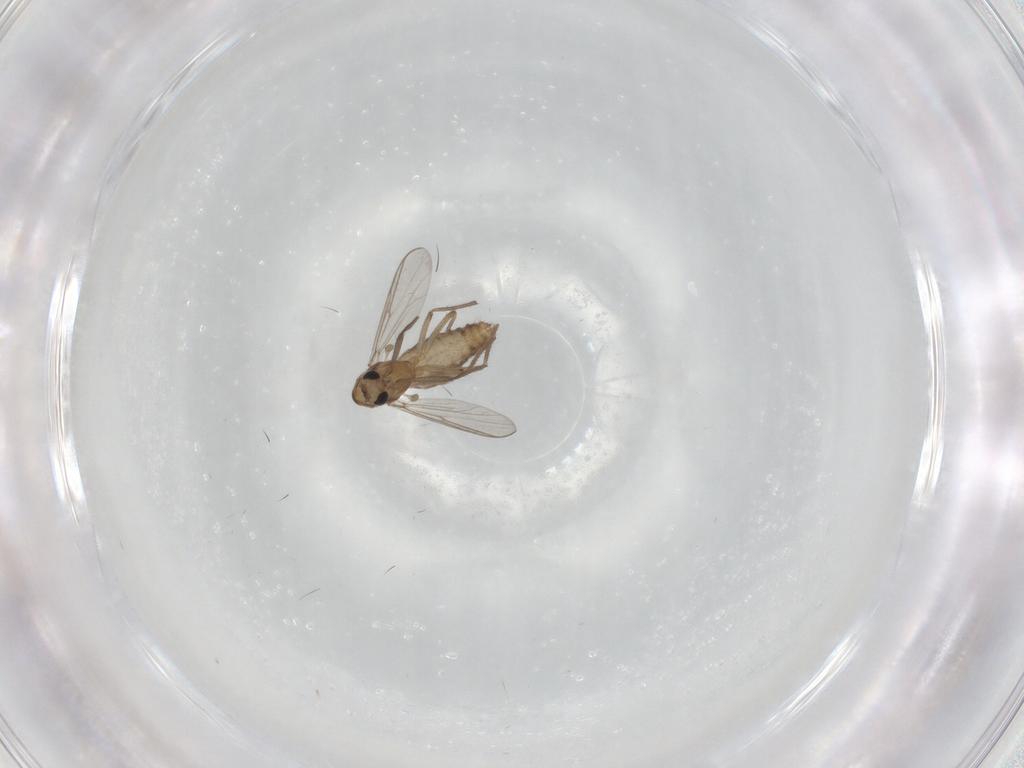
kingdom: Animalia
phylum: Arthropoda
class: Insecta
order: Diptera
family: Chironomidae
